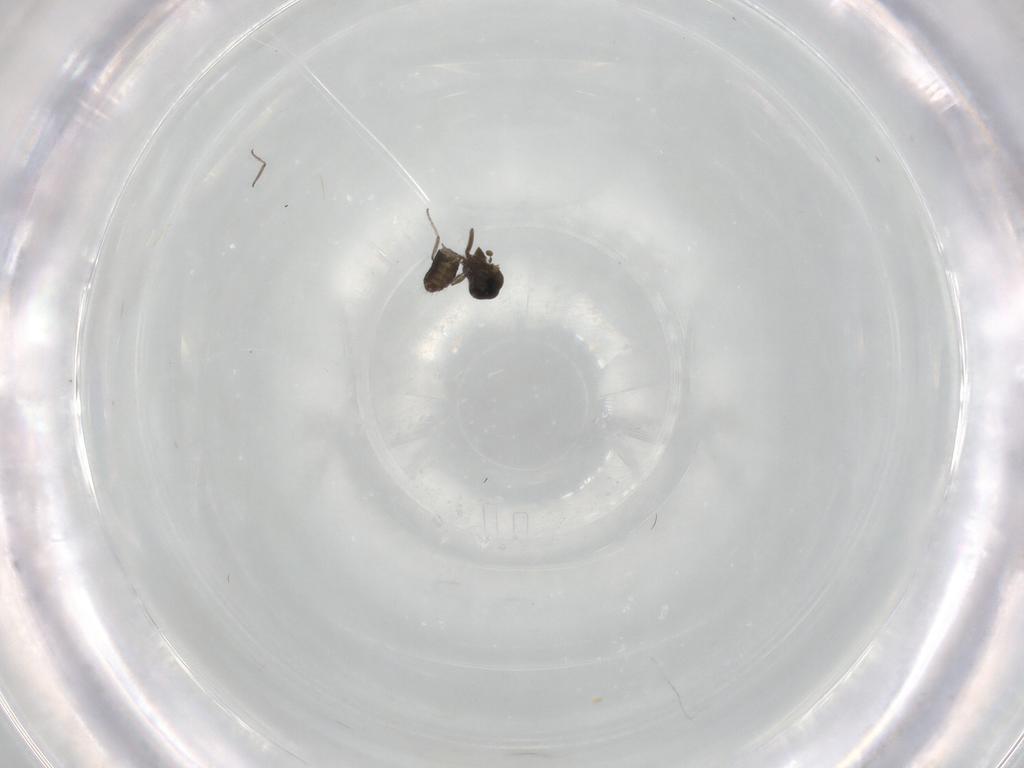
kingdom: Animalia
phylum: Arthropoda
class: Insecta
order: Diptera
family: Ceratopogonidae
